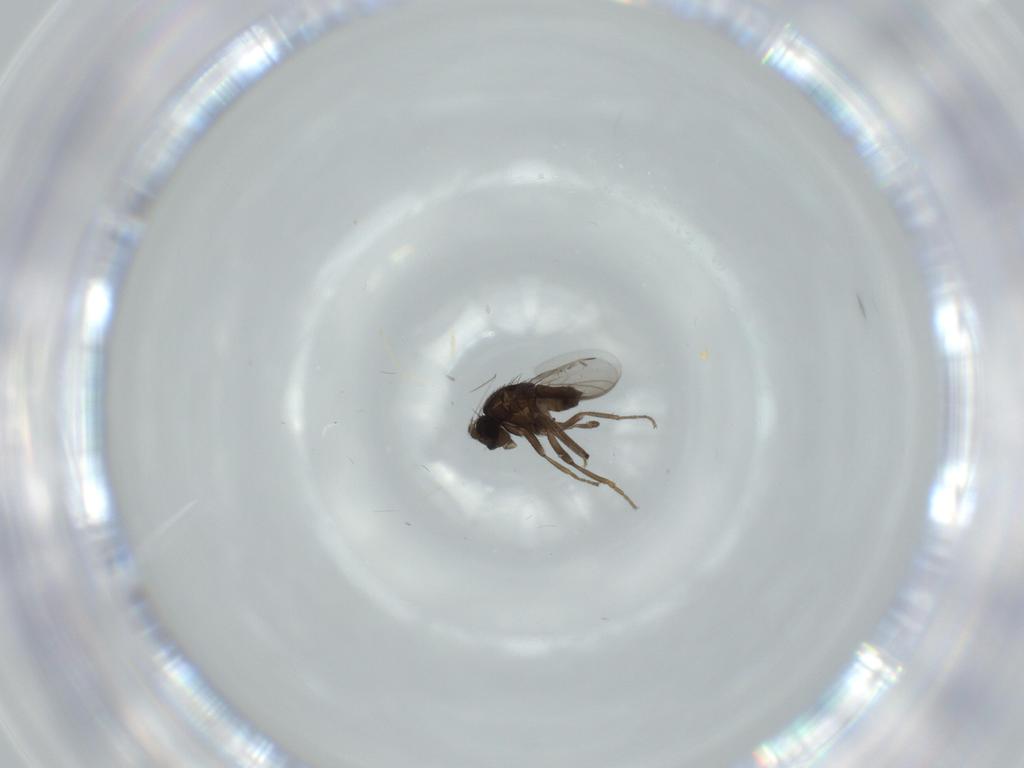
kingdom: Animalia
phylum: Arthropoda
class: Insecta
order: Diptera
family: Sphaeroceridae
